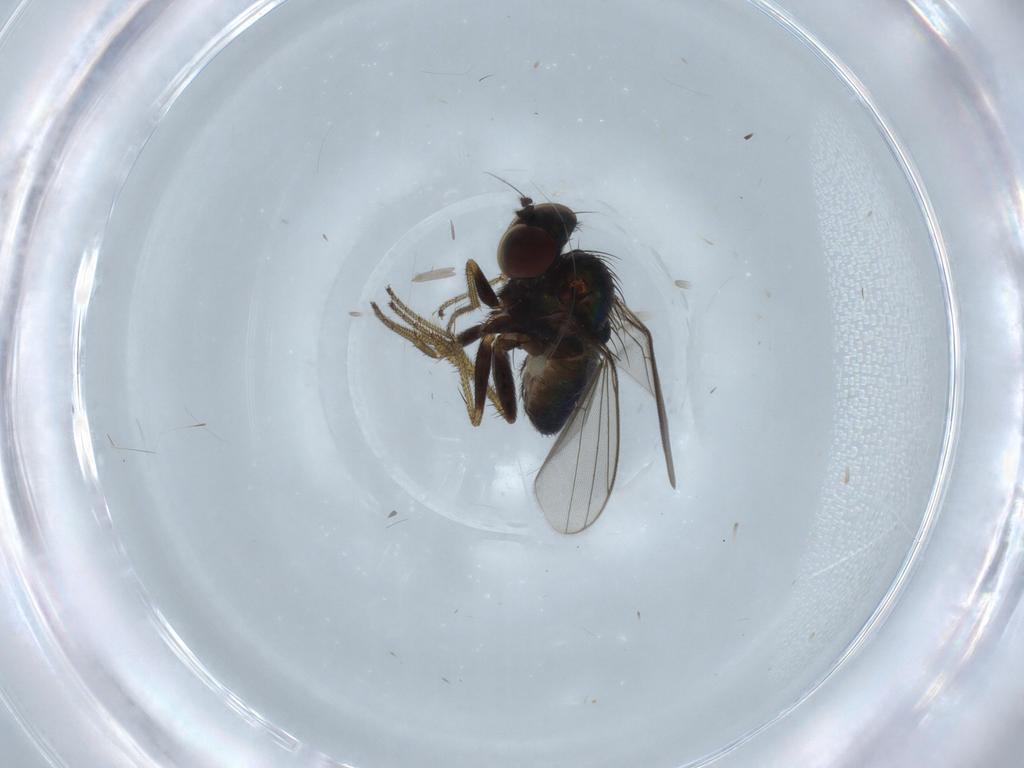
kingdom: Animalia
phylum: Arthropoda
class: Insecta
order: Diptera
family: Dolichopodidae
